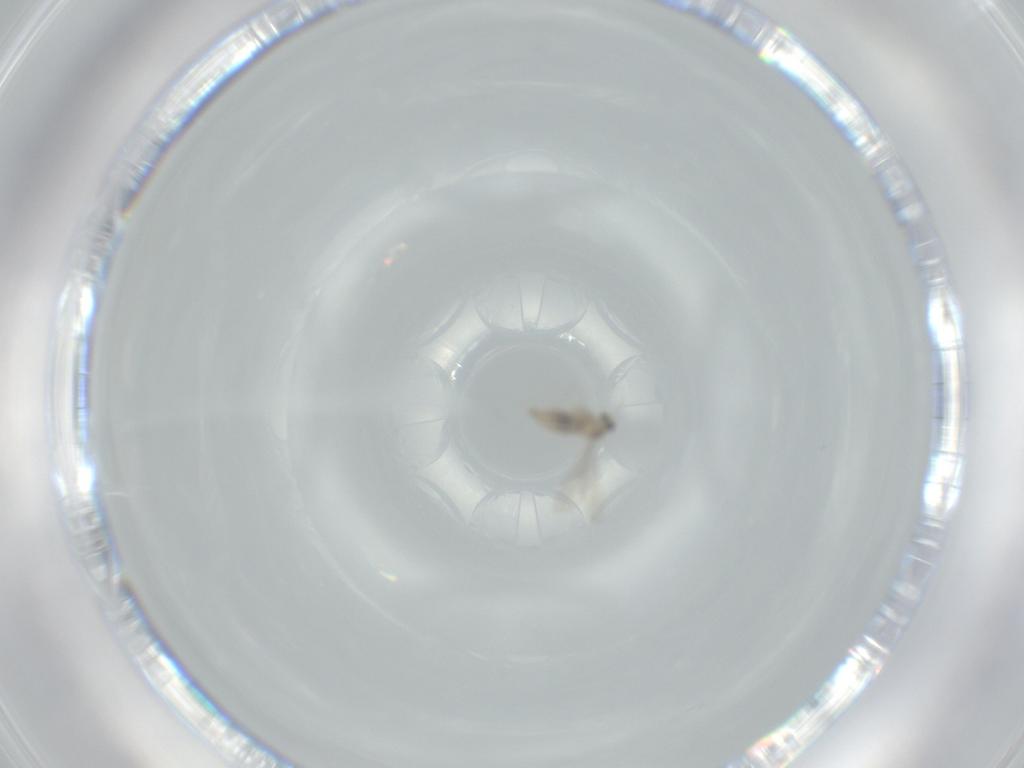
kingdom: Animalia
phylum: Arthropoda
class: Insecta
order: Diptera
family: Cecidomyiidae
